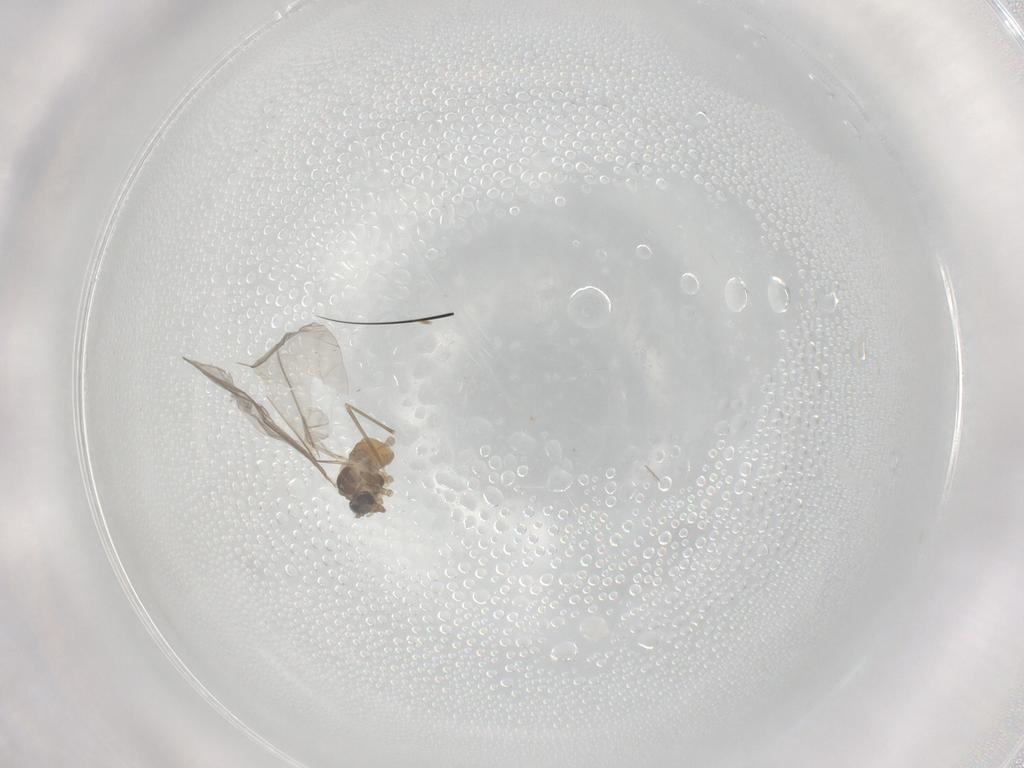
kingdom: Animalia
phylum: Arthropoda
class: Insecta
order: Diptera
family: Cecidomyiidae
